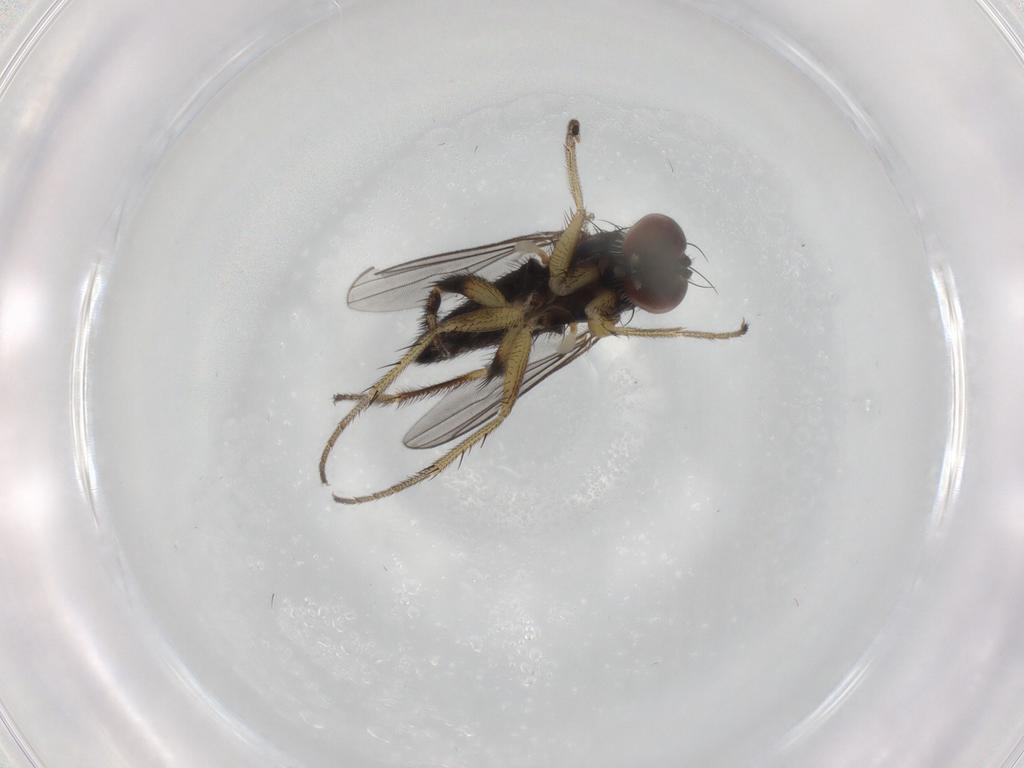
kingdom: Animalia
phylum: Arthropoda
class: Insecta
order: Diptera
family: Dolichopodidae
